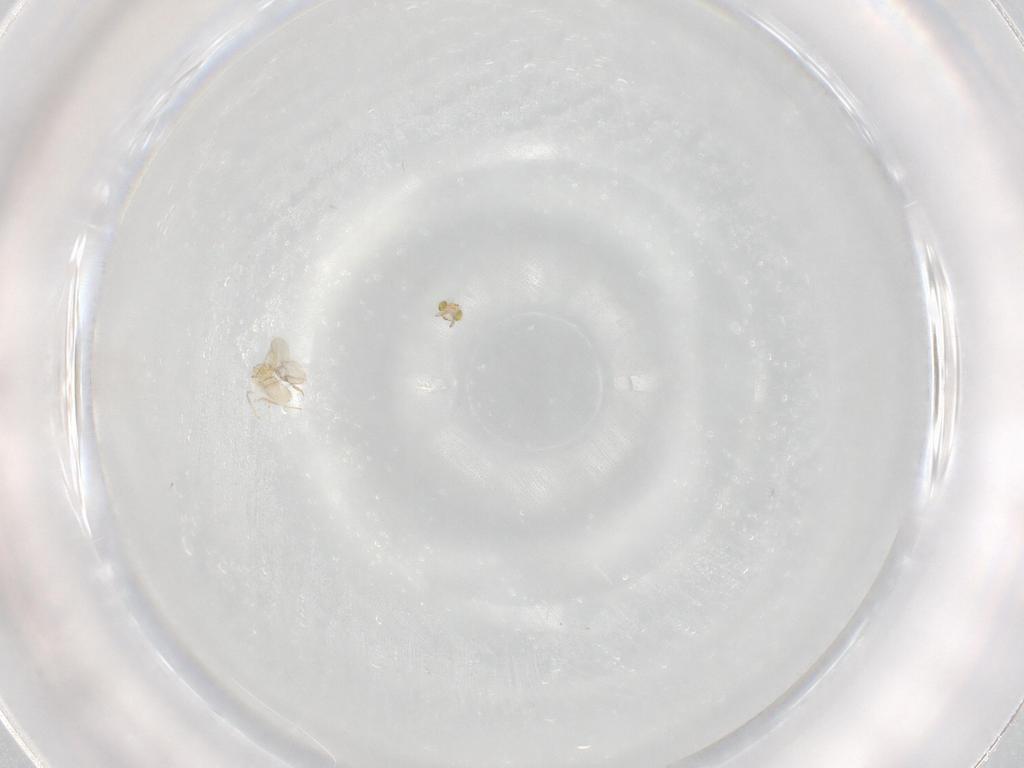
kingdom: Animalia
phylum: Arthropoda
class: Insecta
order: Hymenoptera
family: Aphelinidae
